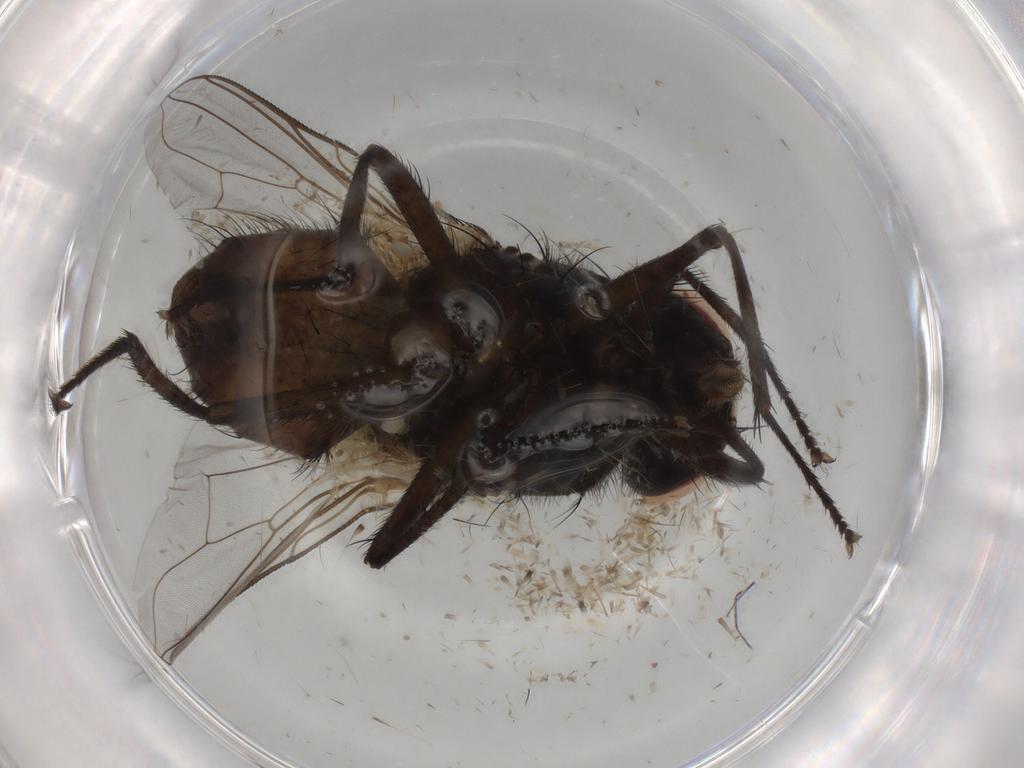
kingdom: Animalia
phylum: Arthropoda
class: Insecta
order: Diptera
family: Muscidae
